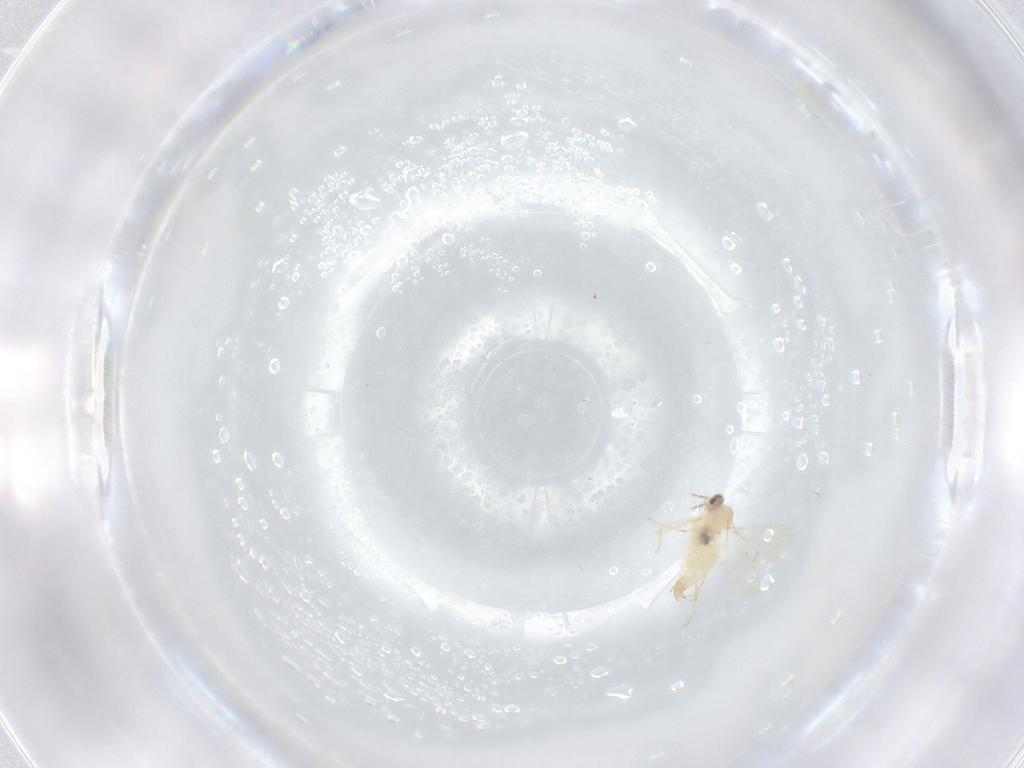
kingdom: Animalia
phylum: Arthropoda
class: Insecta
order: Diptera
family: Cecidomyiidae
